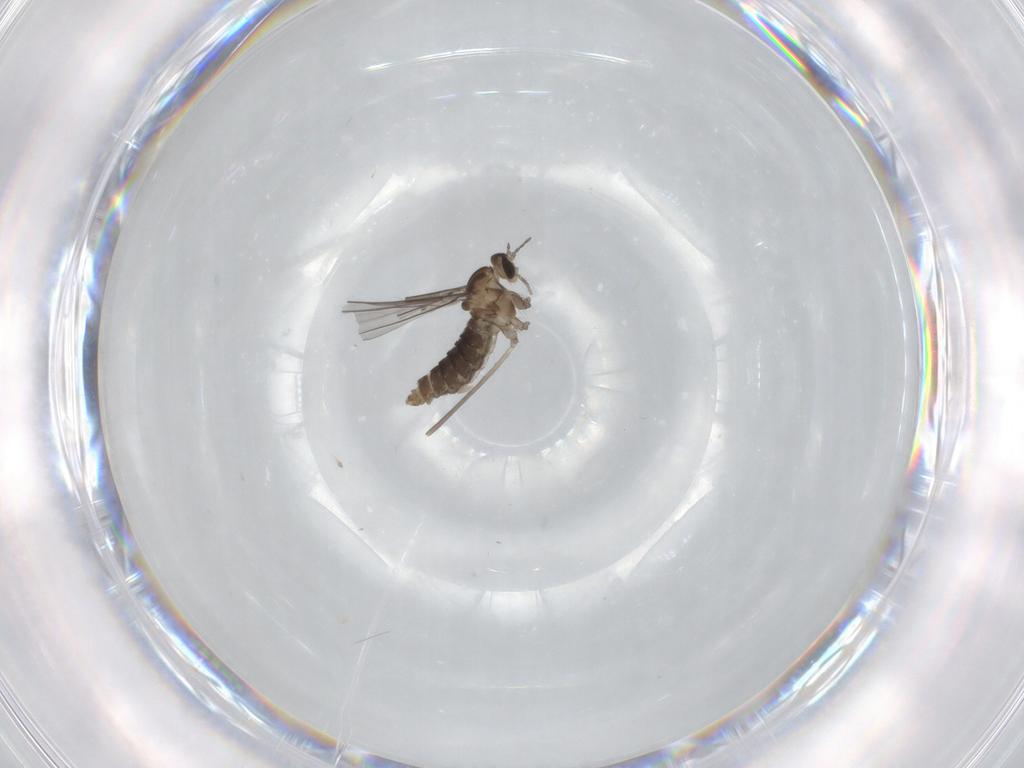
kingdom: Animalia
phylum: Arthropoda
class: Insecta
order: Diptera
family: Cecidomyiidae
